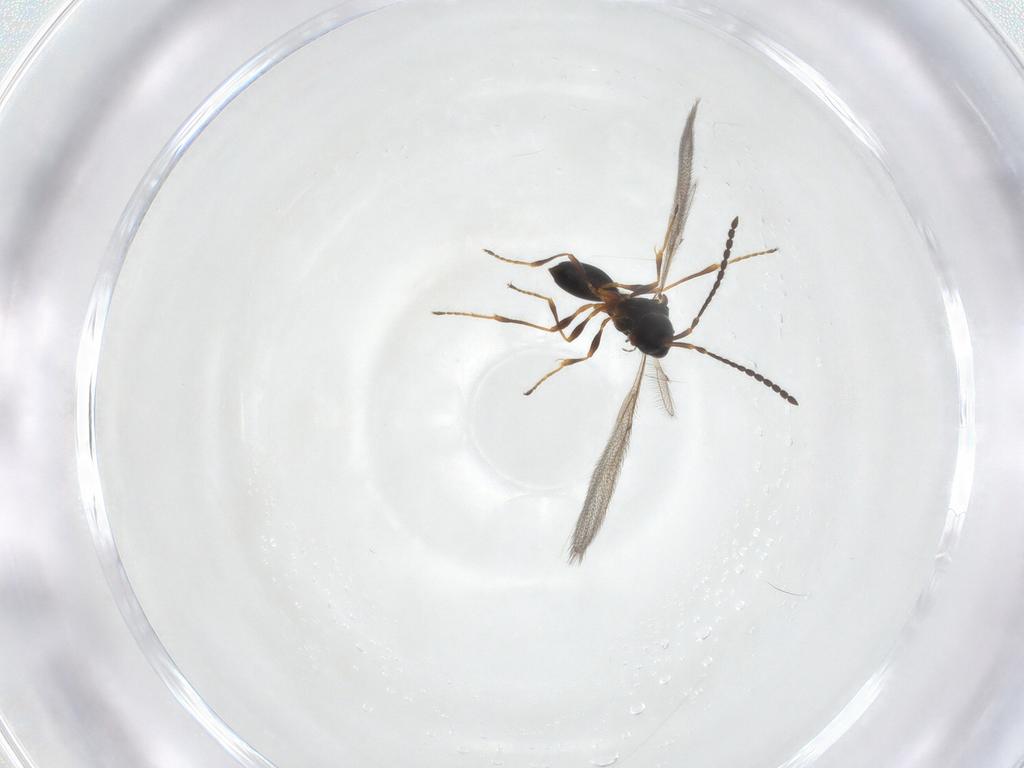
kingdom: Animalia
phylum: Arthropoda
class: Insecta
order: Hymenoptera
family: Diapriidae
